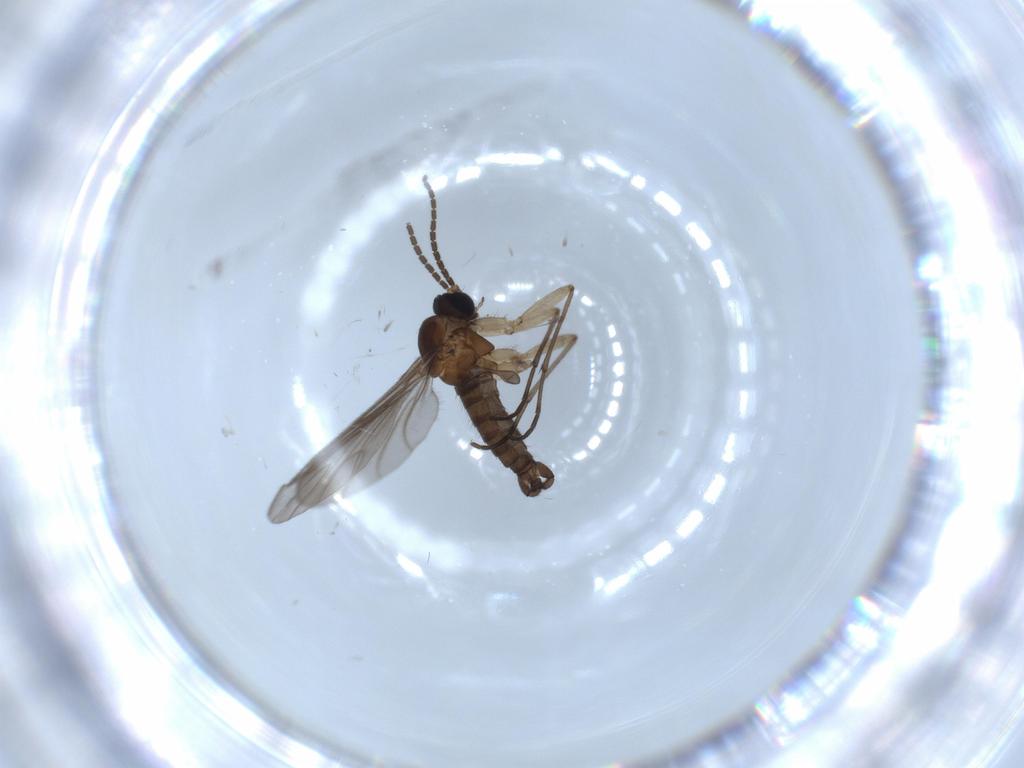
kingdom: Animalia
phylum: Arthropoda
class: Insecta
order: Diptera
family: Sciaridae
